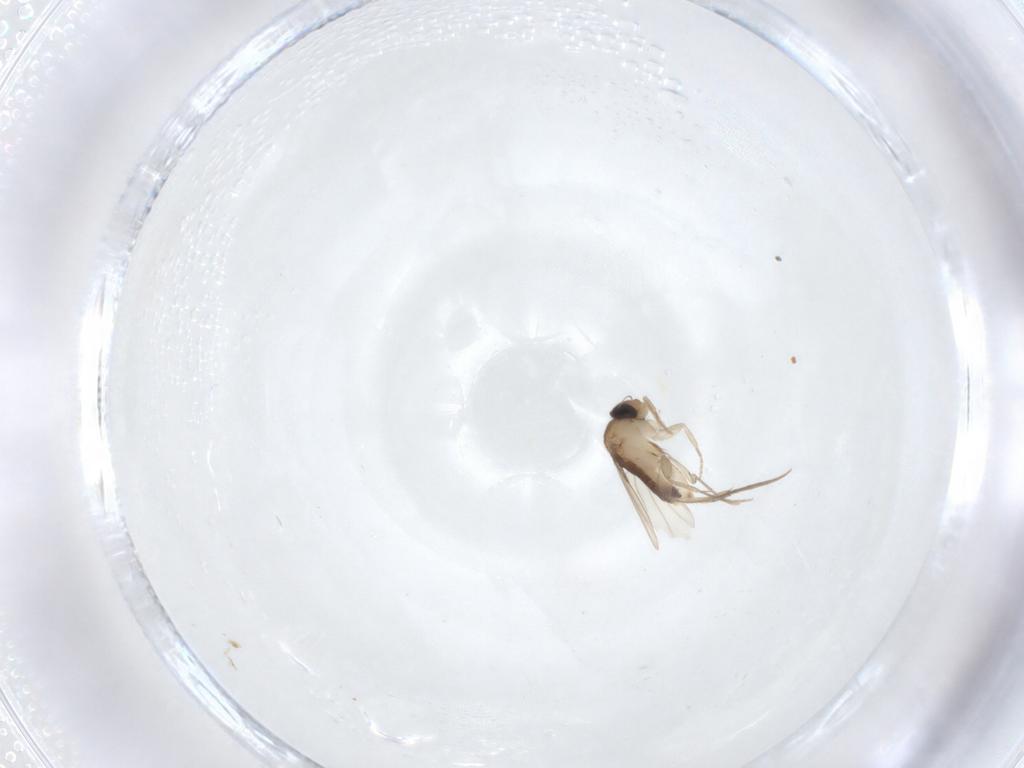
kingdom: Animalia
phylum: Arthropoda
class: Insecta
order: Diptera
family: Phoridae
